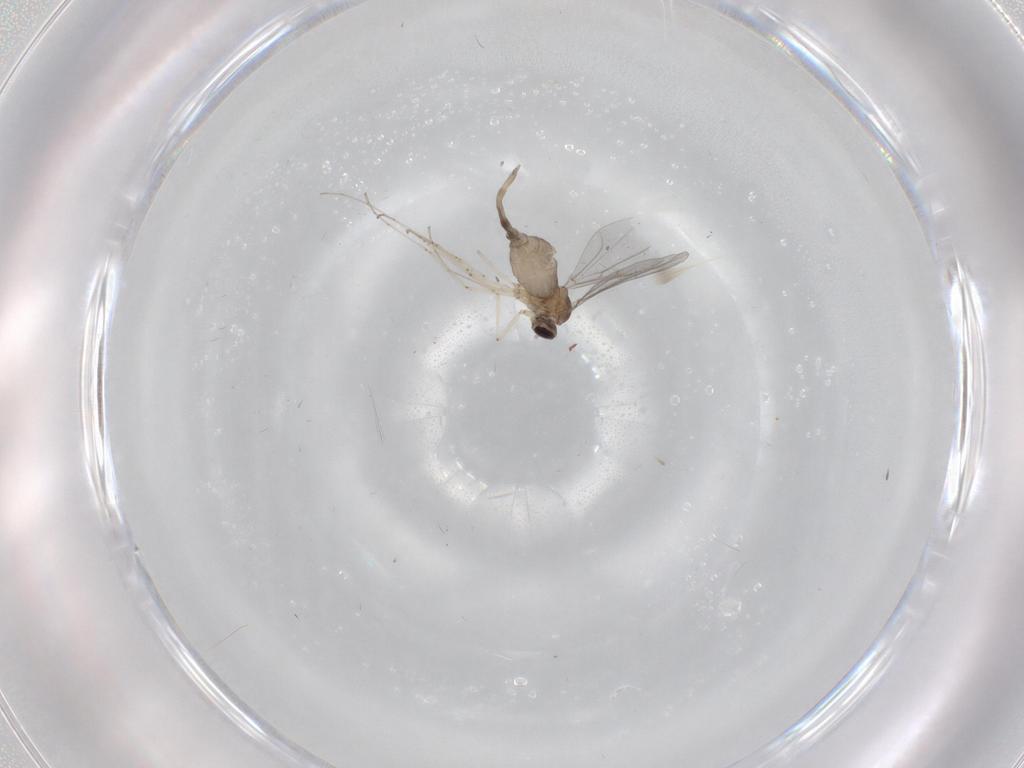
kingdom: Animalia
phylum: Arthropoda
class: Insecta
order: Diptera
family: Cecidomyiidae
